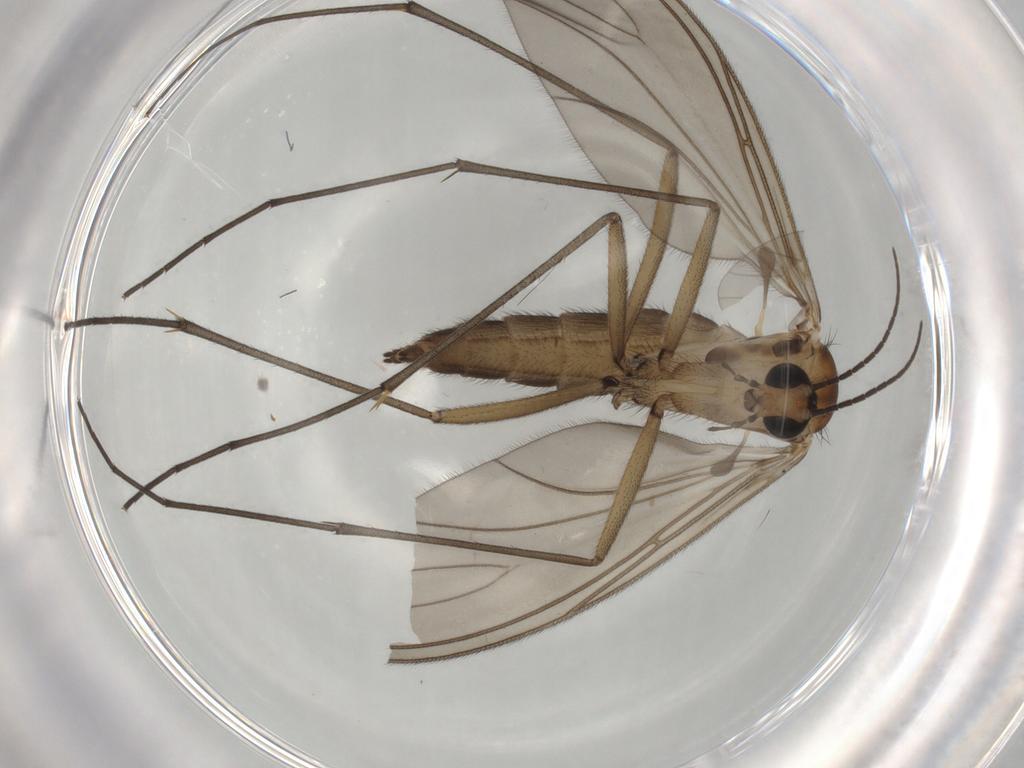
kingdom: Animalia
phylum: Arthropoda
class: Insecta
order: Diptera
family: Sciaridae
